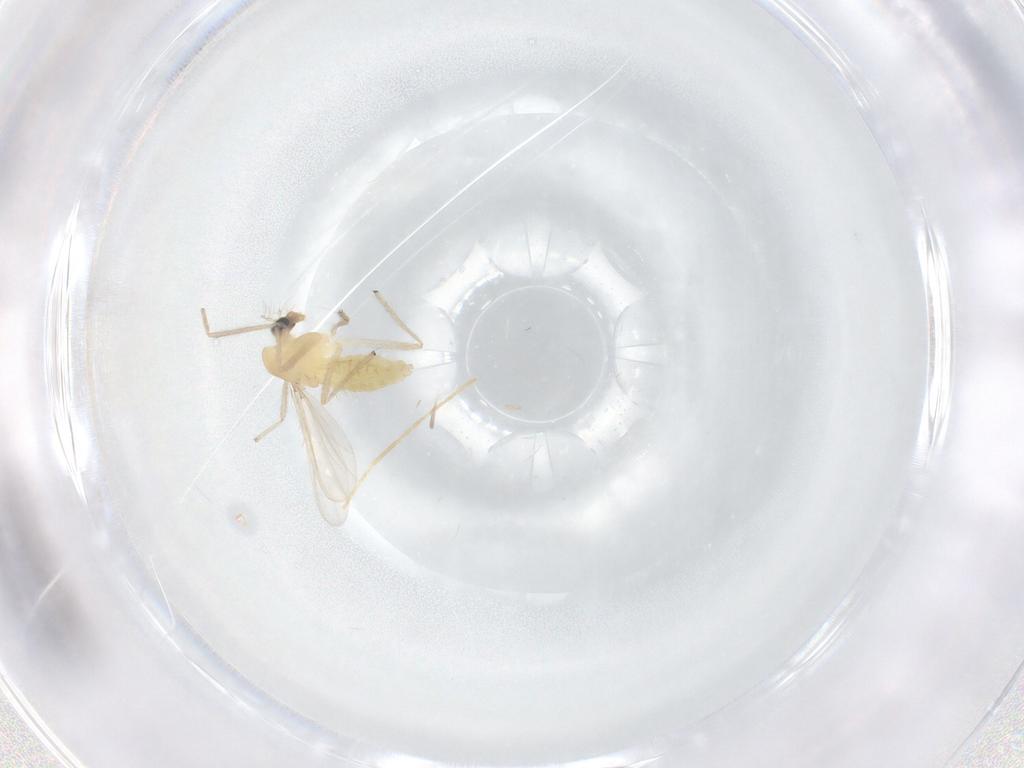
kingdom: Animalia
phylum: Arthropoda
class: Insecta
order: Diptera
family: Chironomidae
